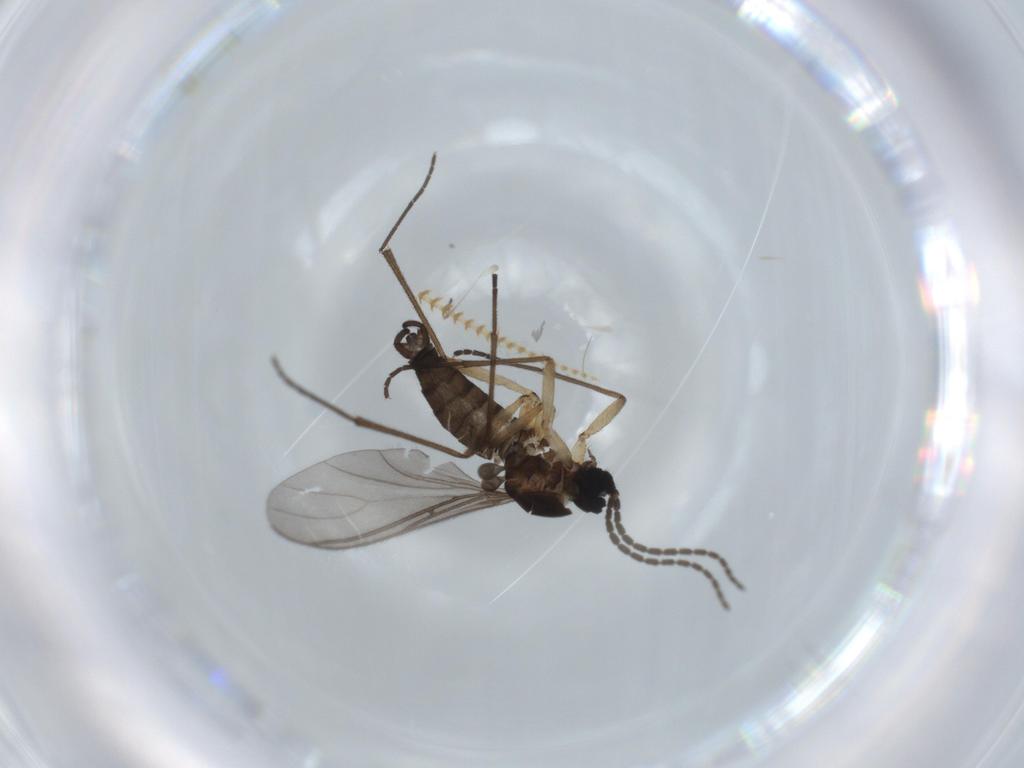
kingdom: Animalia
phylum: Arthropoda
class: Insecta
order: Diptera
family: Sciaridae
